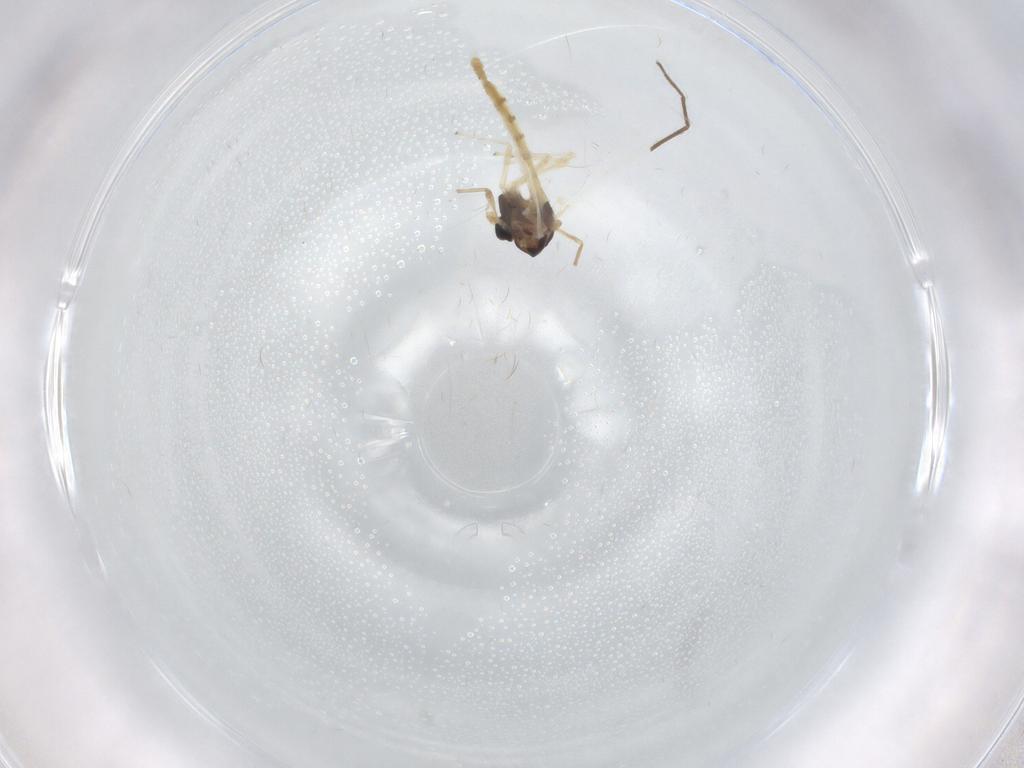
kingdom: Animalia
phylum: Arthropoda
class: Insecta
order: Diptera
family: Chironomidae
